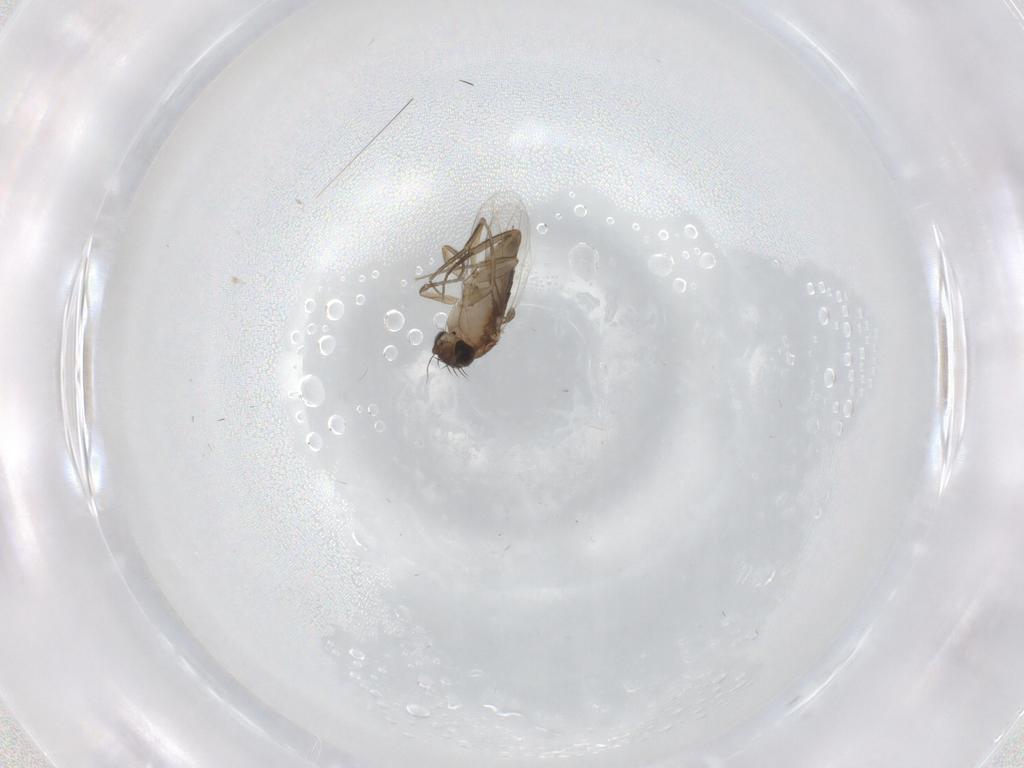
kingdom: Animalia
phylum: Arthropoda
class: Insecta
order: Diptera
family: Phoridae
